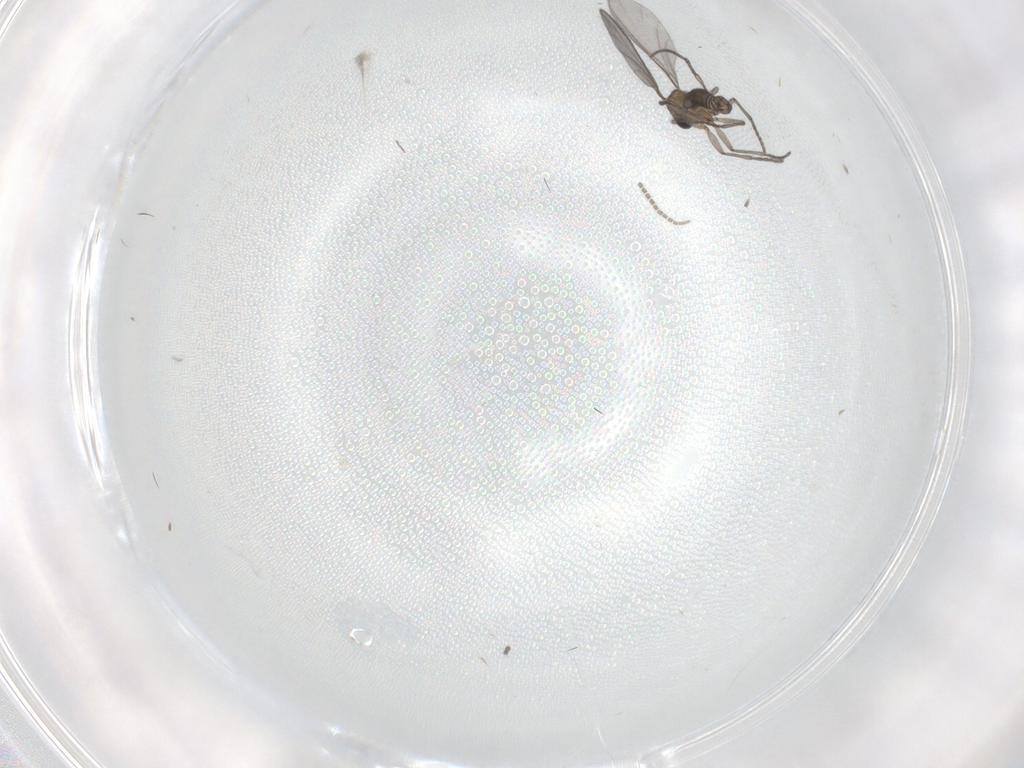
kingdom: Animalia
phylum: Arthropoda
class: Insecta
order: Diptera
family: Sciaridae
